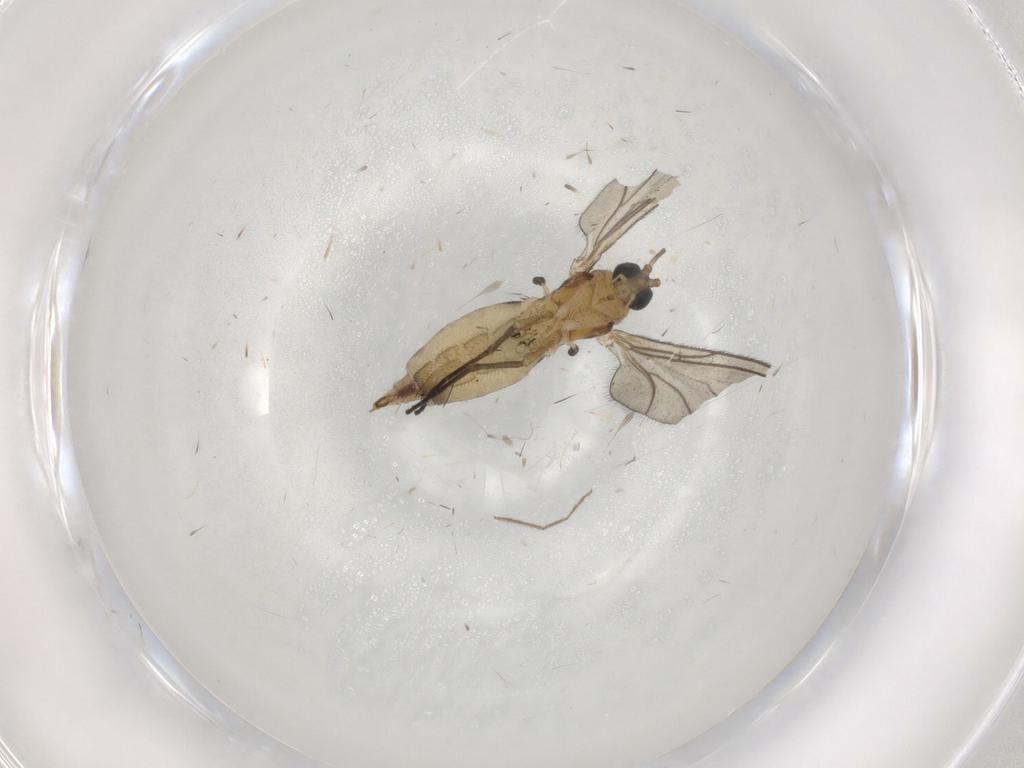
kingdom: Animalia
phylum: Arthropoda
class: Insecta
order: Diptera
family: Sciaridae
